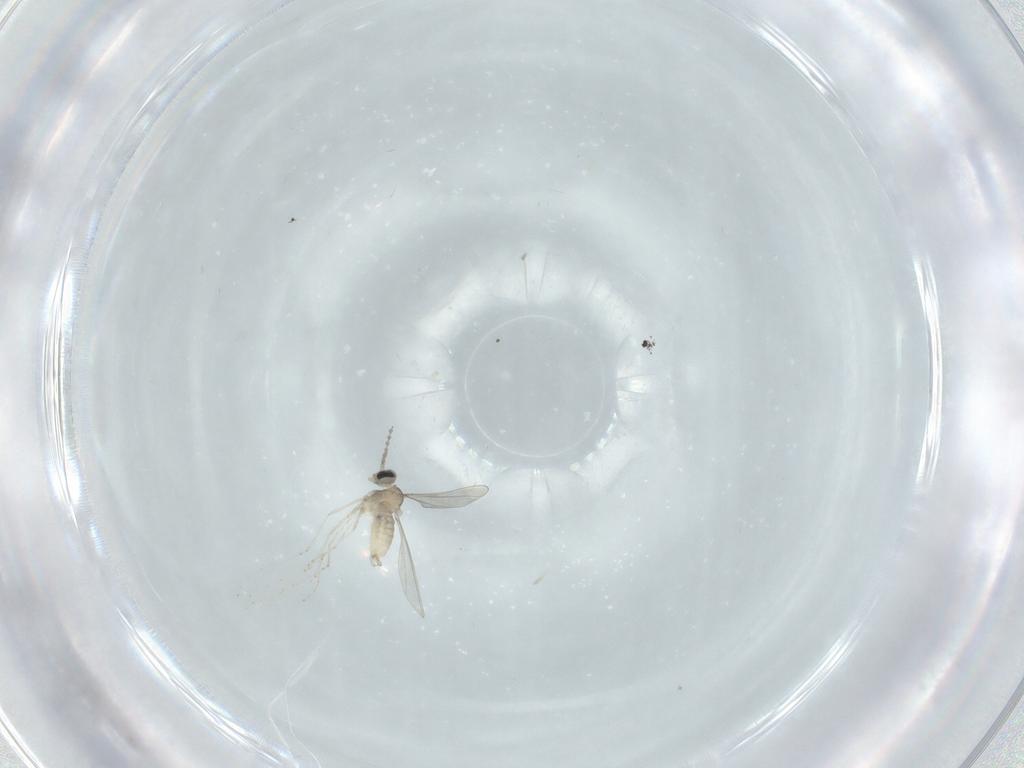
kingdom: Animalia
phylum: Arthropoda
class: Insecta
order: Diptera
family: Cecidomyiidae
